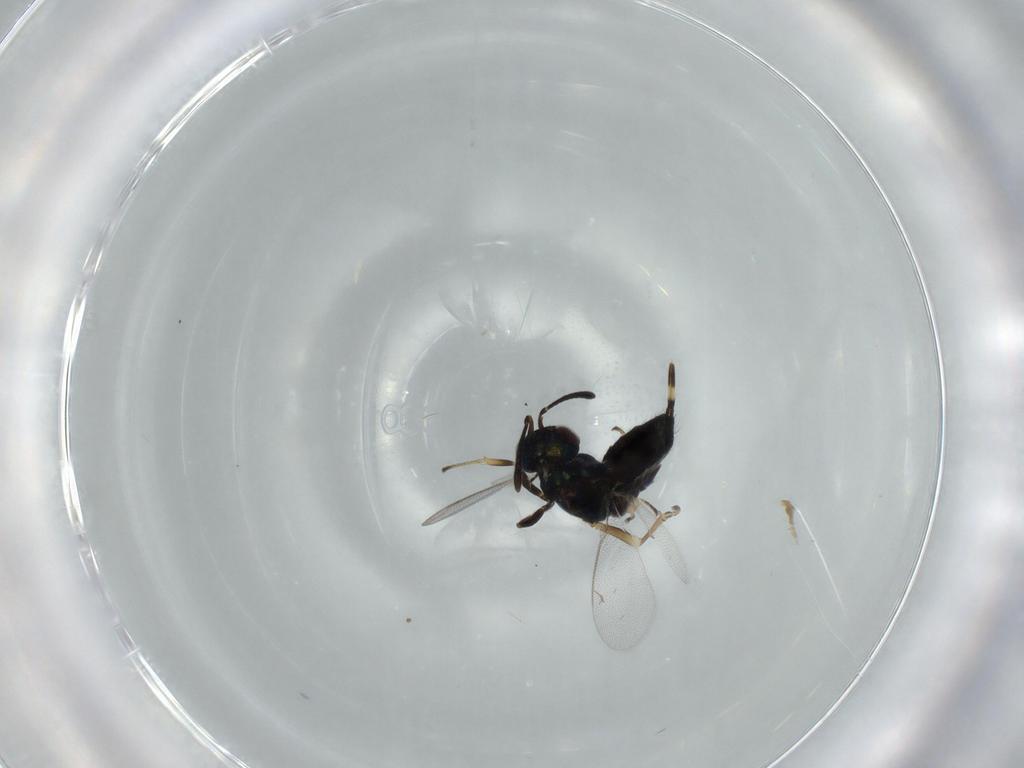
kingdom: Animalia
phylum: Arthropoda
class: Insecta
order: Hymenoptera
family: Eupelmidae
